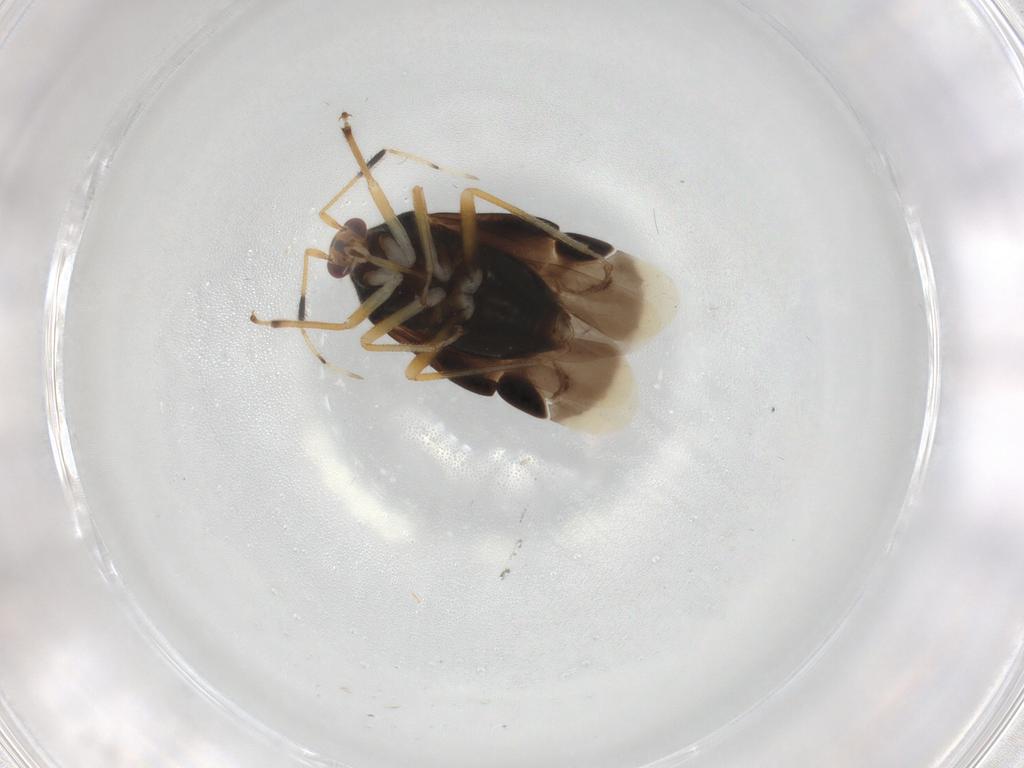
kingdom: Animalia
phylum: Arthropoda
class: Insecta
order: Hemiptera
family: Miridae
